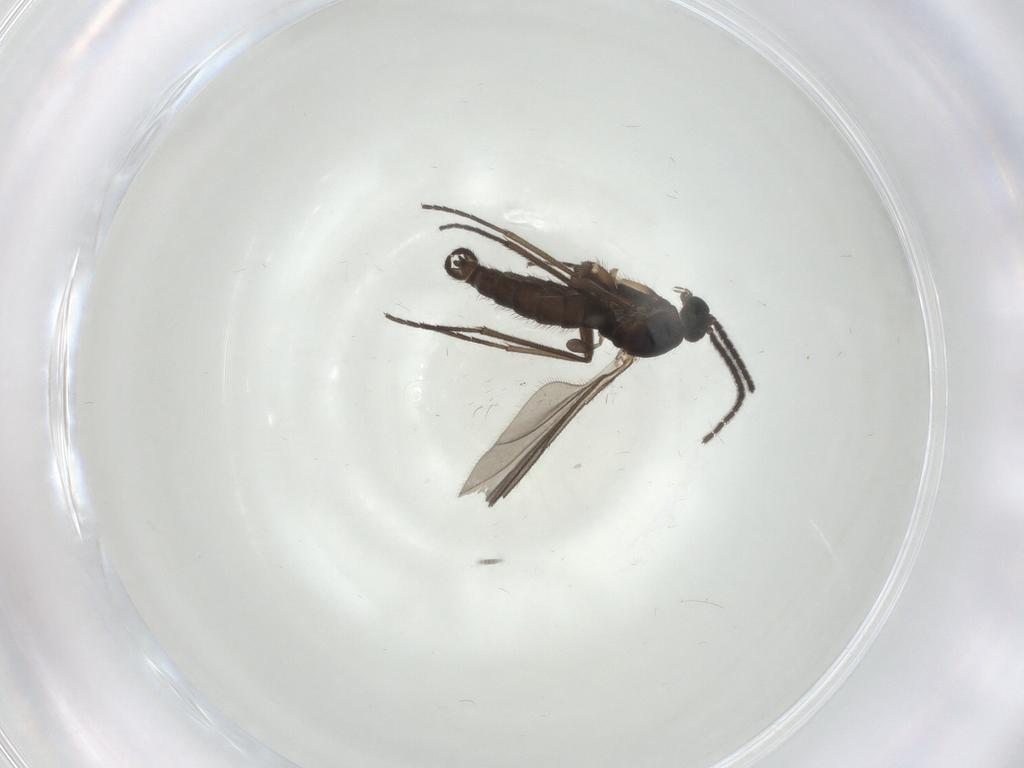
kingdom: Animalia
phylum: Arthropoda
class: Insecta
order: Diptera
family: Sciaridae
